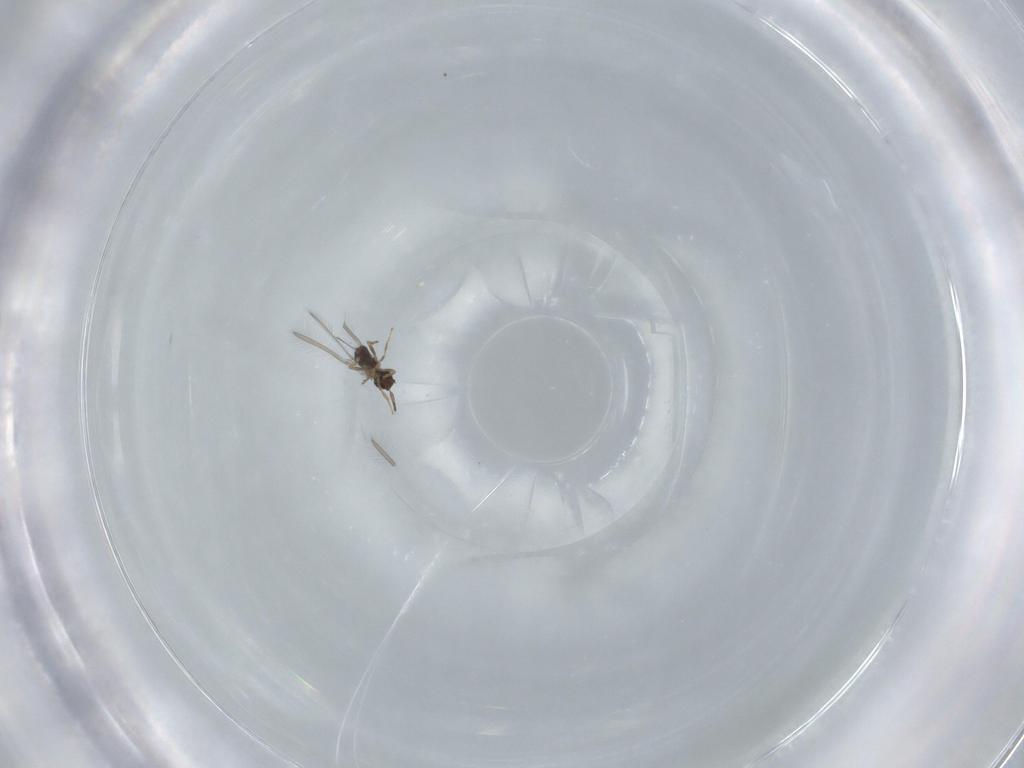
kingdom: Animalia
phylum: Arthropoda
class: Insecta
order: Hymenoptera
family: Mymaridae
